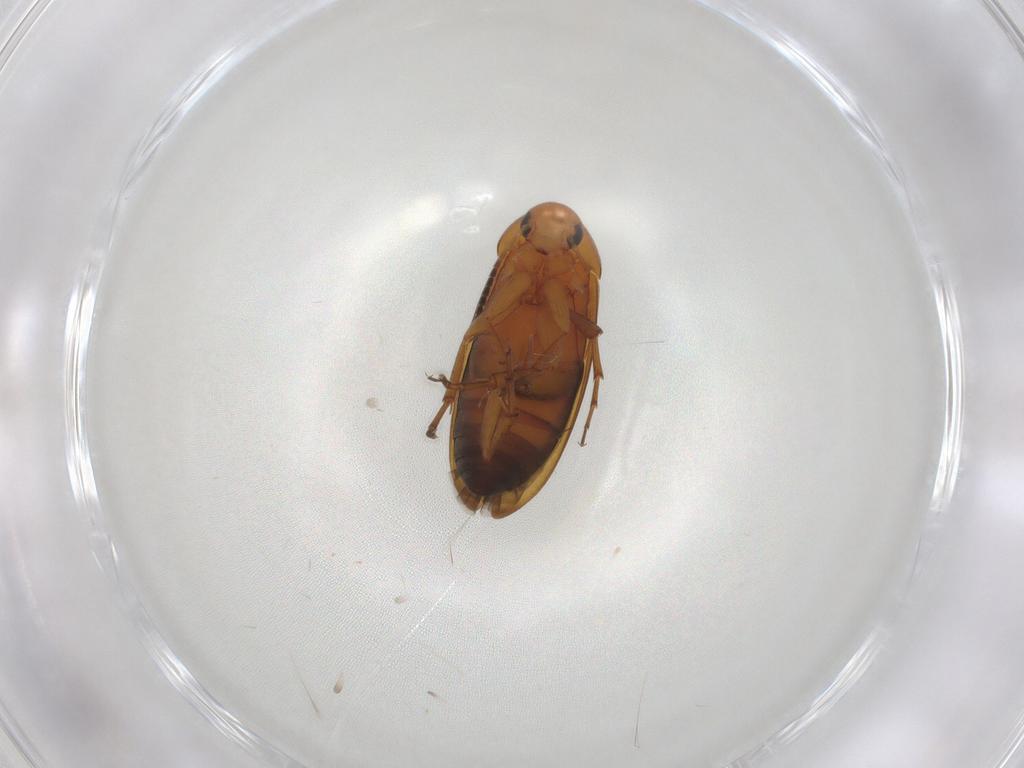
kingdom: Animalia
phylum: Arthropoda
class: Insecta
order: Coleoptera
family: Scraptiidae
